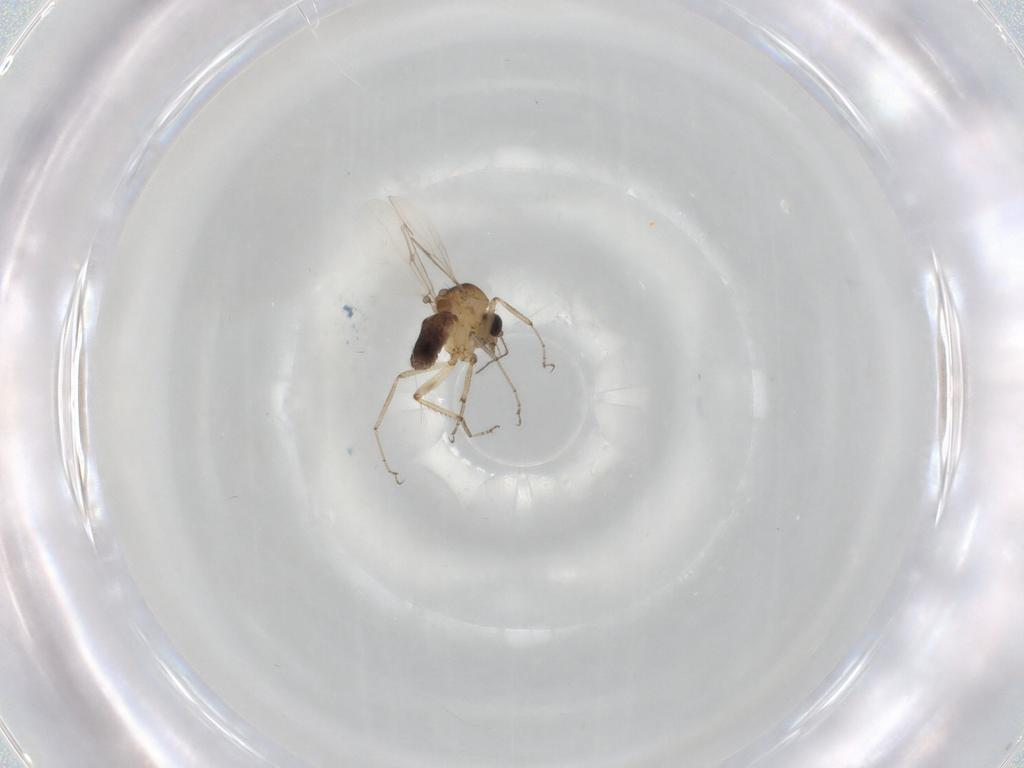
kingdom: Animalia
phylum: Arthropoda
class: Insecta
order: Diptera
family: Ceratopogonidae
